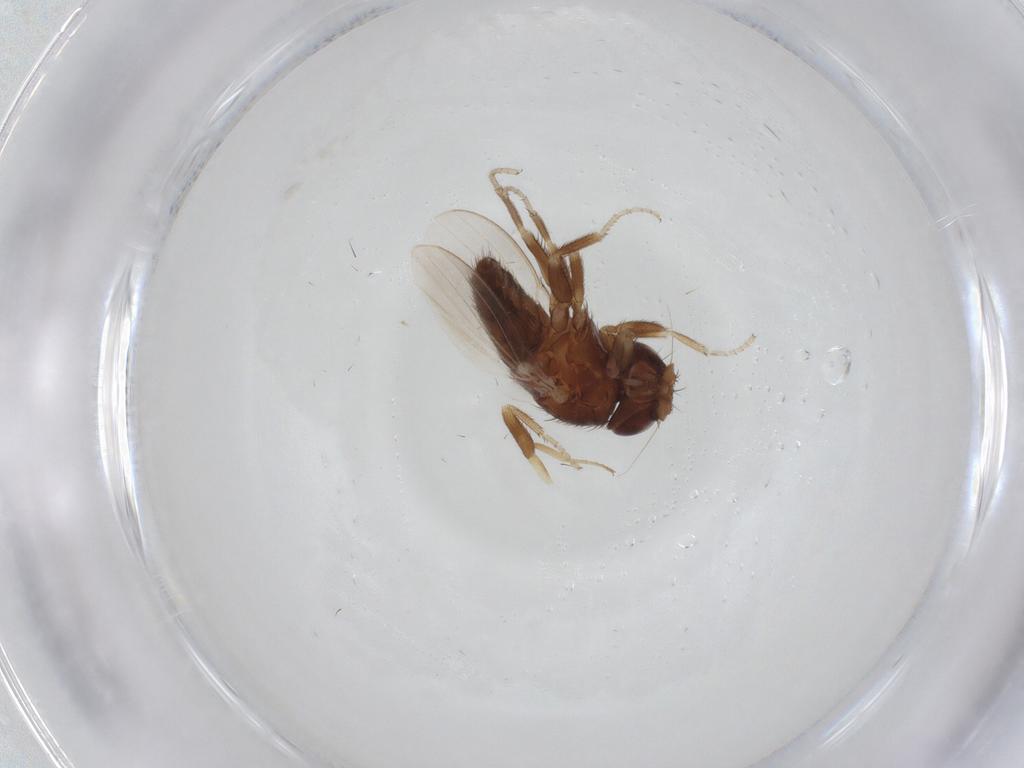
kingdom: Animalia
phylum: Arthropoda
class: Insecta
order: Diptera
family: Milichiidae
